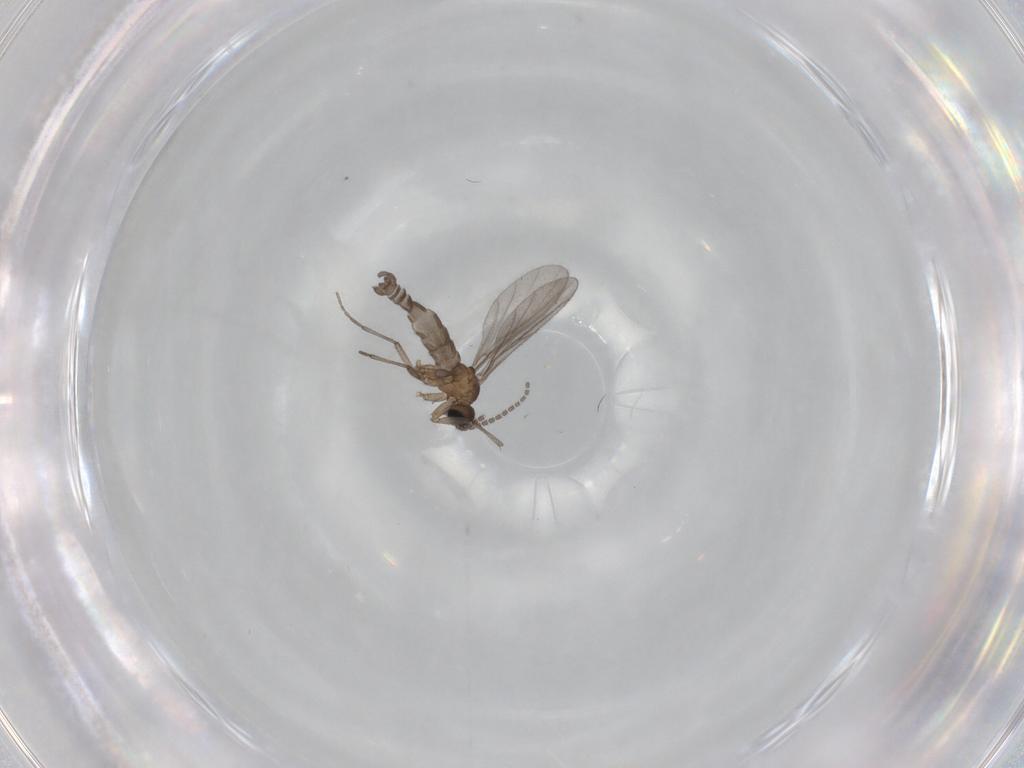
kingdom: Animalia
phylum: Arthropoda
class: Insecta
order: Diptera
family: Sciaridae
